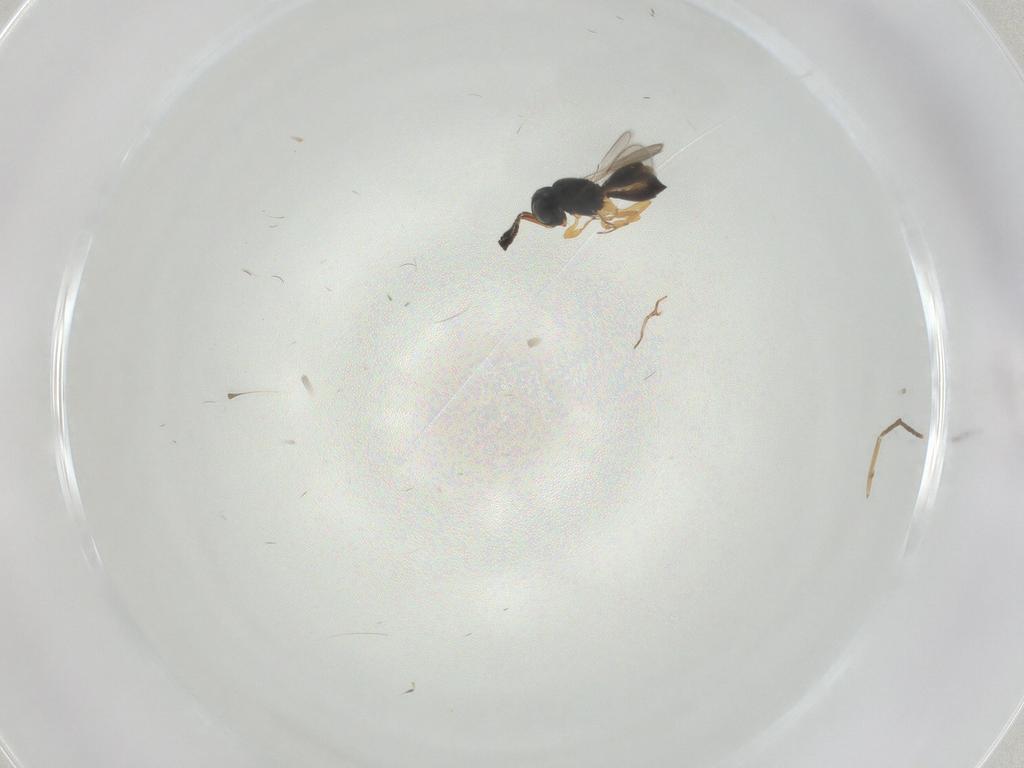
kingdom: Animalia
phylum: Arthropoda
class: Insecta
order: Hymenoptera
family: Scelionidae
